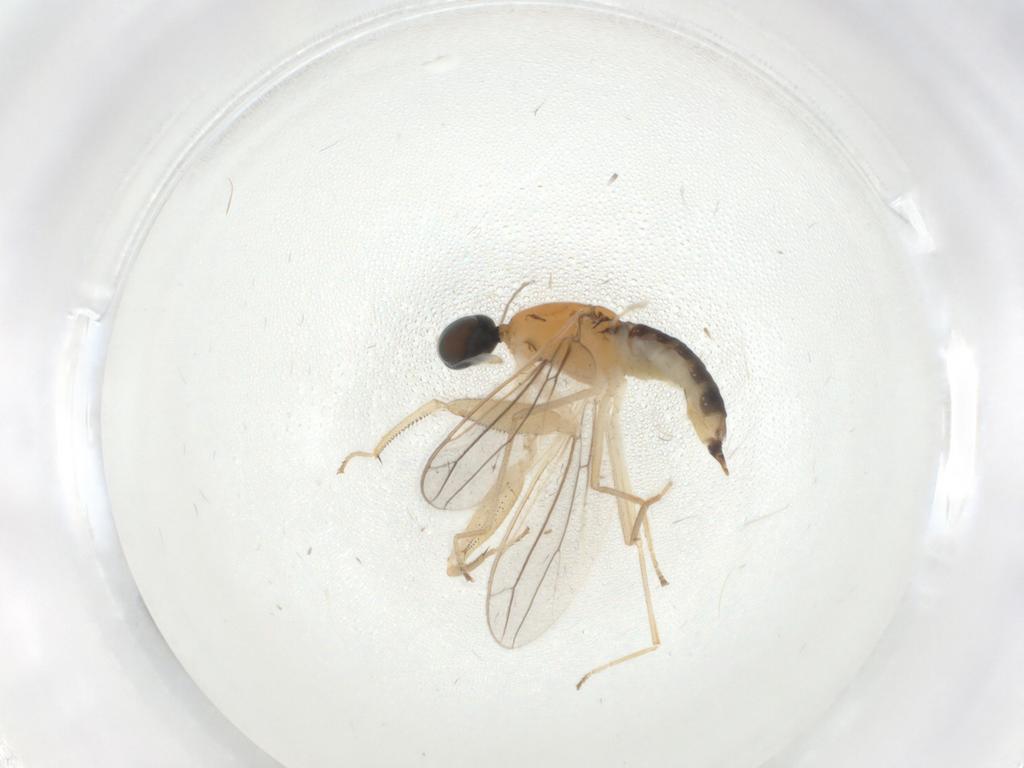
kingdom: Animalia
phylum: Arthropoda
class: Insecta
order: Diptera
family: Empididae
